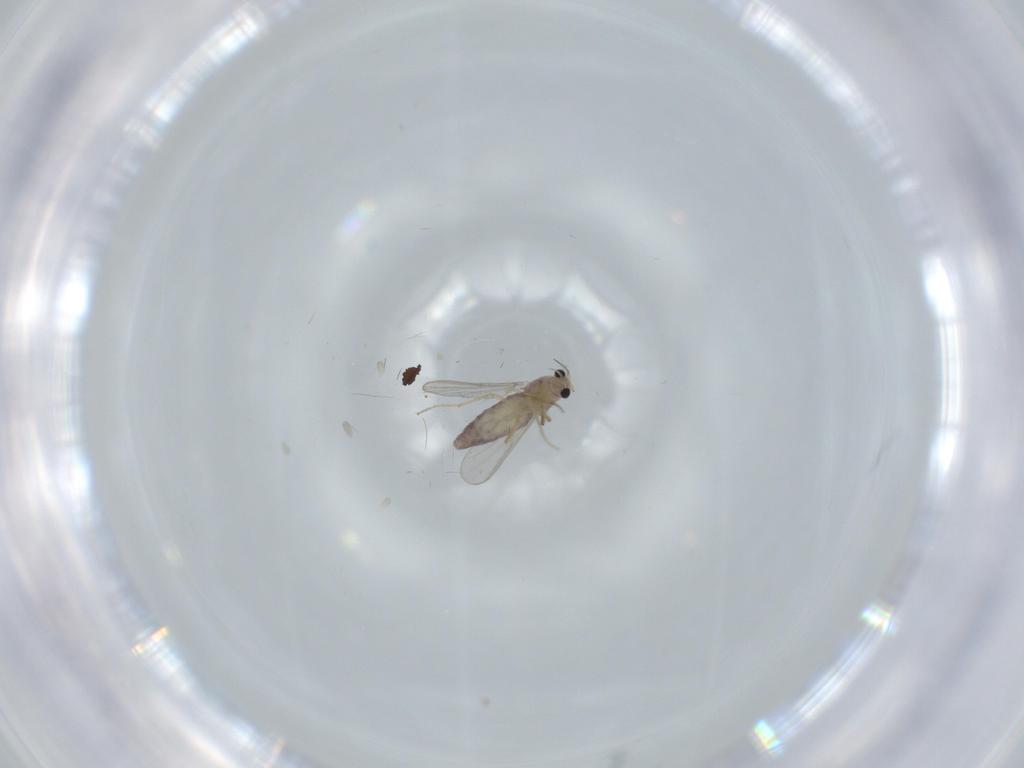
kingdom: Animalia
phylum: Arthropoda
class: Insecta
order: Diptera
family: Chironomidae
